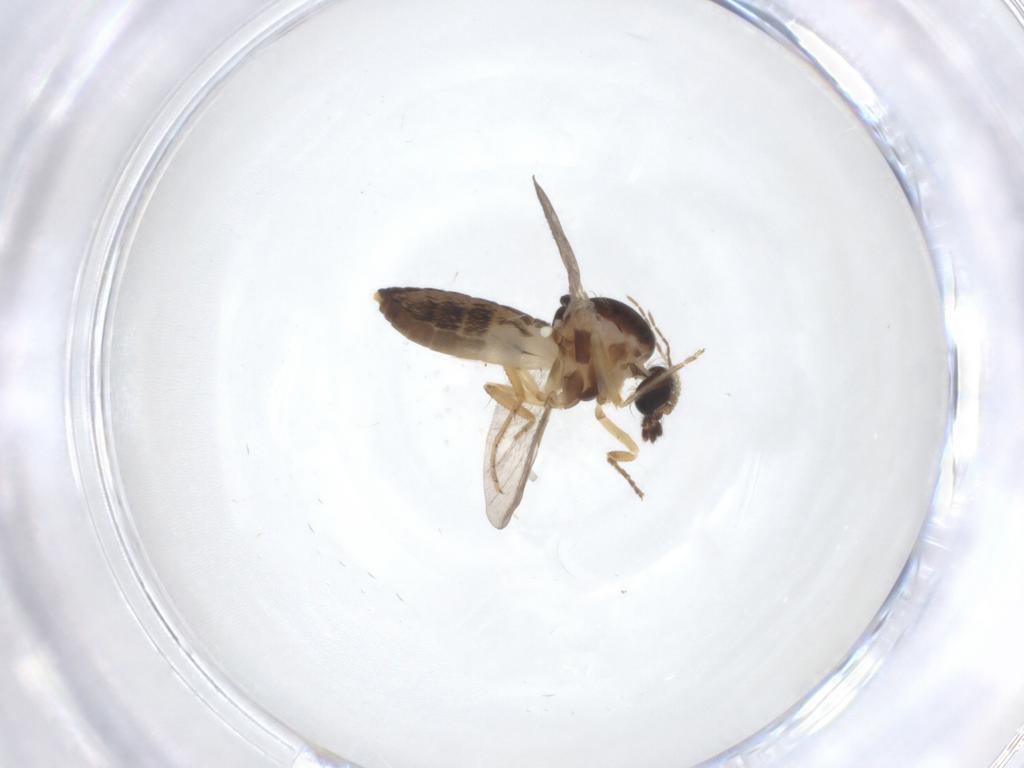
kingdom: Animalia
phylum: Arthropoda
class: Insecta
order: Diptera
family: Ceratopogonidae
